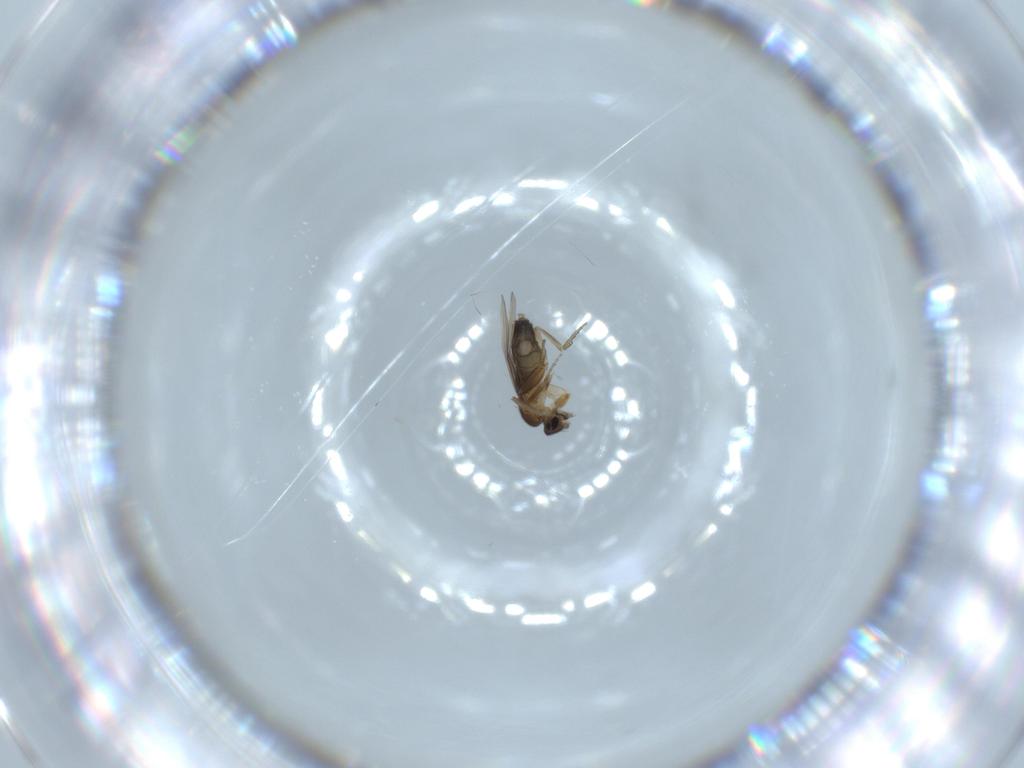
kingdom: Animalia
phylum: Arthropoda
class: Insecta
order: Diptera
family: Phoridae
